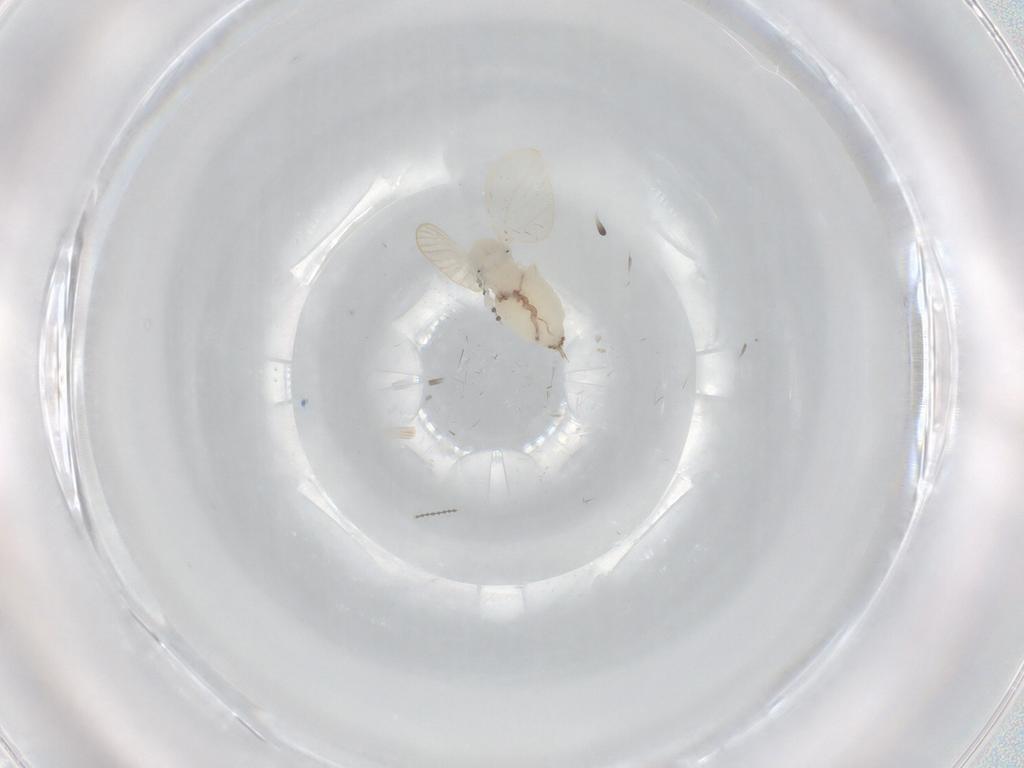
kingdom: Animalia
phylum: Arthropoda
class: Insecta
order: Diptera
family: Psychodidae
